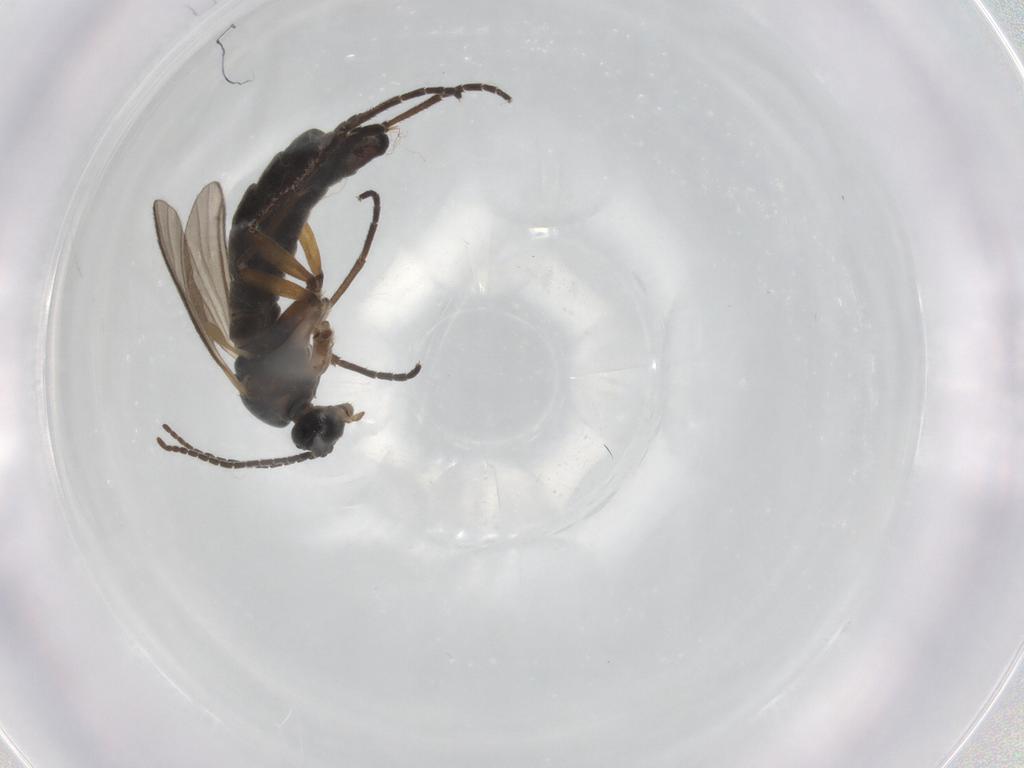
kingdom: Animalia
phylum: Arthropoda
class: Insecta
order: Diptera
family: Sciaridae
